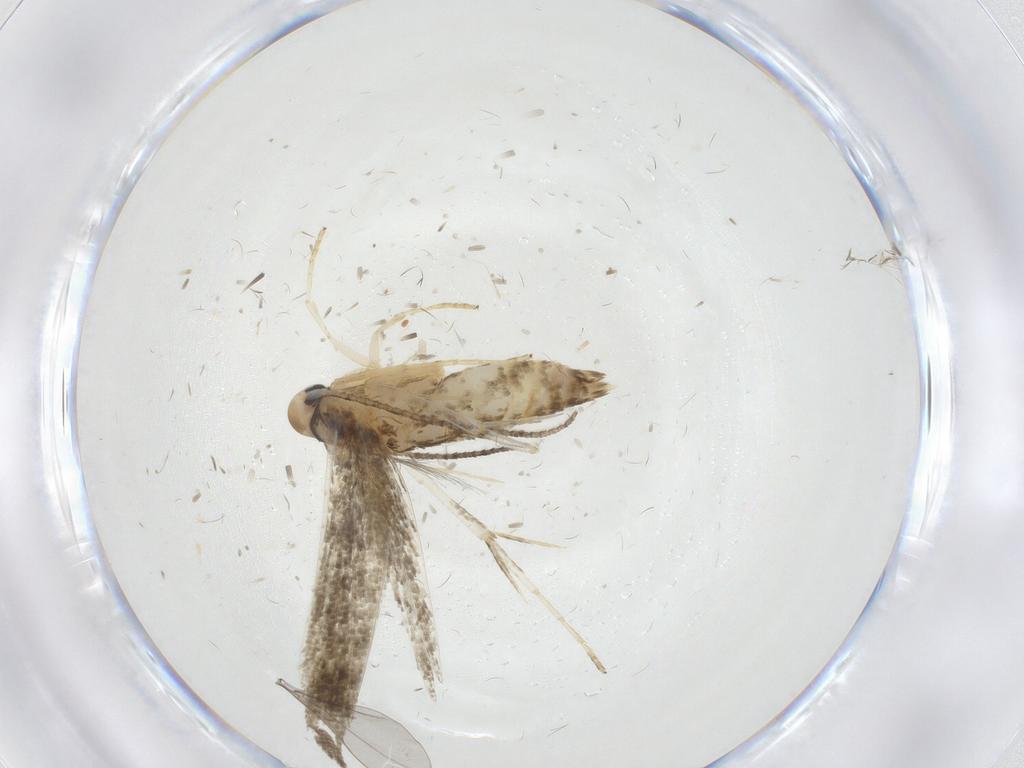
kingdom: Animalia
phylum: Arthropoda
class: Insecta
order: Lepidoptera
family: Stathmopodidae
